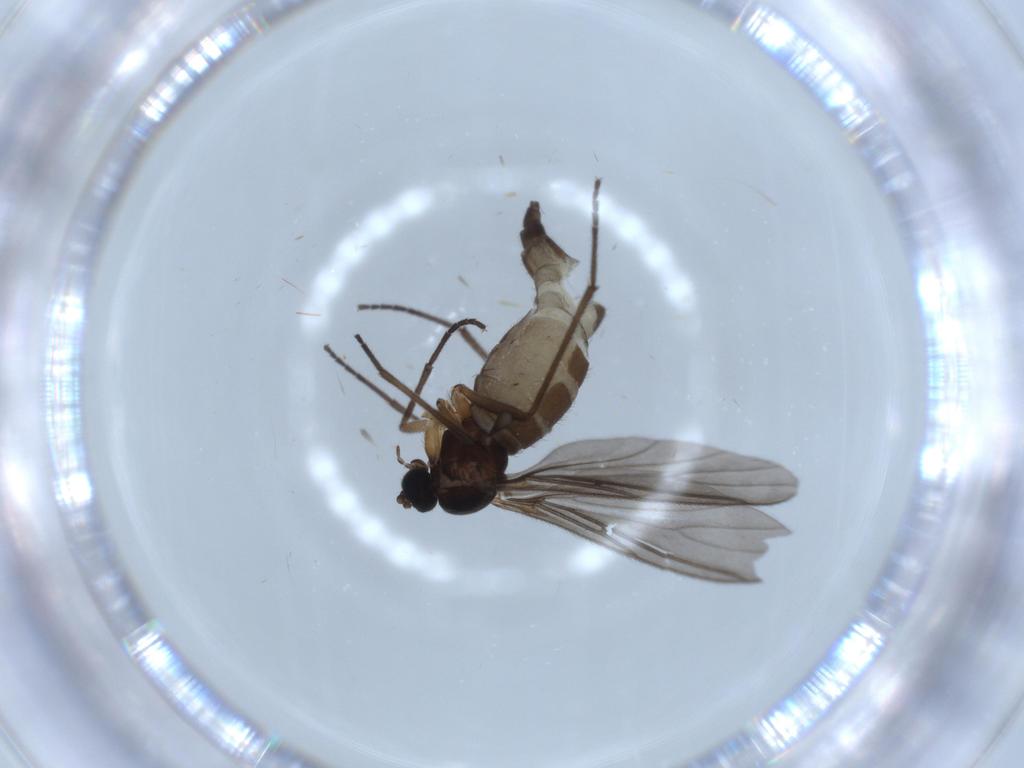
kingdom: Animalia
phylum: Arthropoda
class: Insecta
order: Diptera
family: Sciaridae
